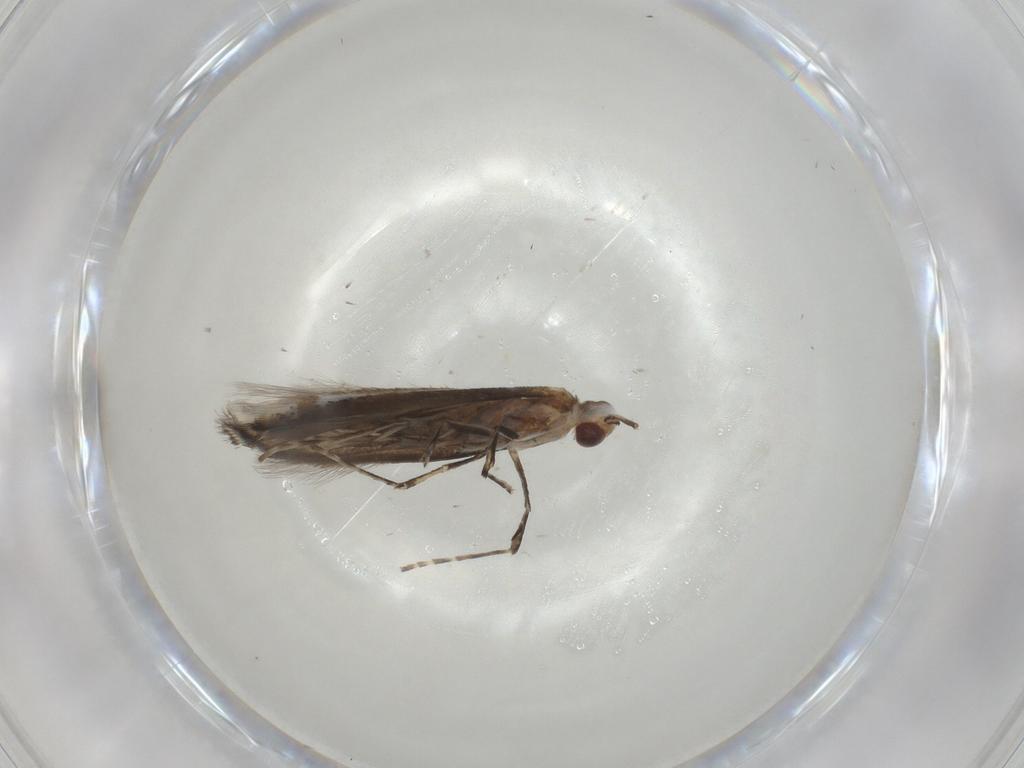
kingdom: Animalia
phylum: Arthropoda
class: Insecta
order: Lepidoptera
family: Gracillariidae
